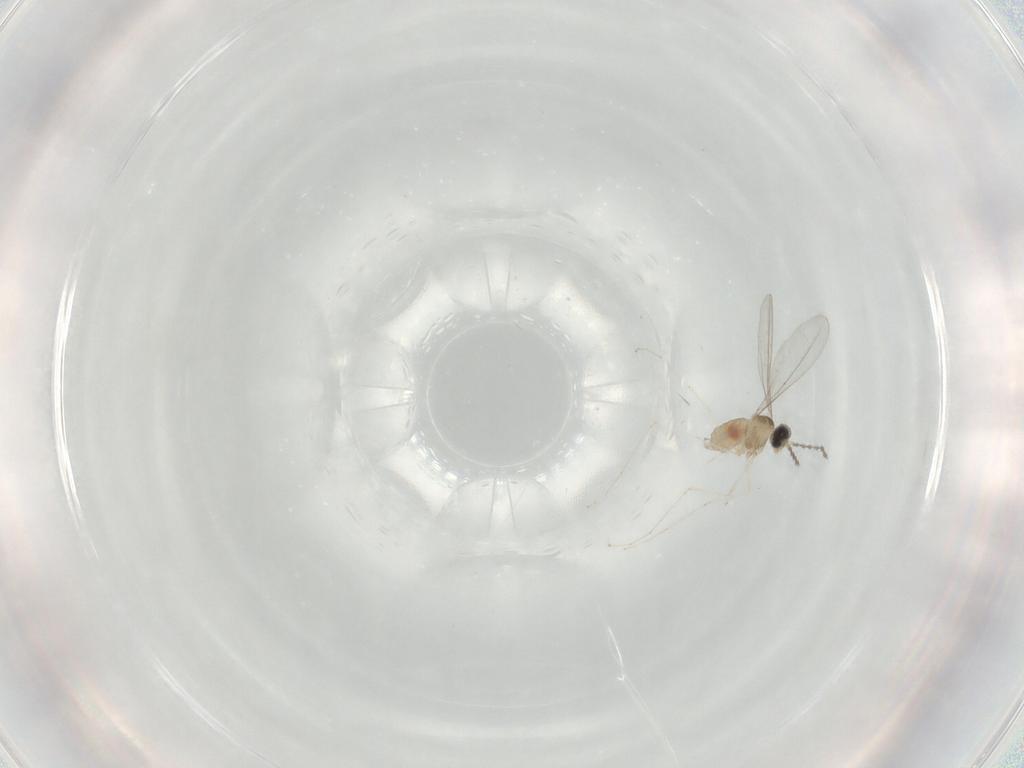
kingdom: Animalia
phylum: Arthropoda
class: Insecta
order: Diptera
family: Cecidomyiidae
